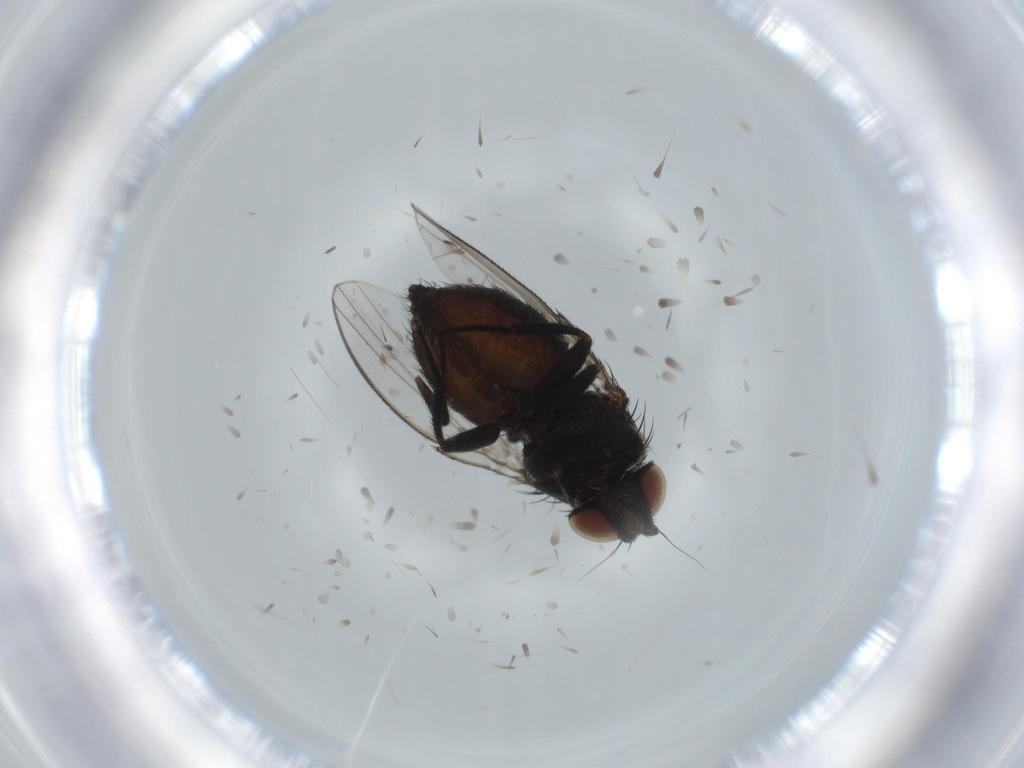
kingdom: Animalia
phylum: Arthropoda
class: Insecta
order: Diptera
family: Milichiidae
